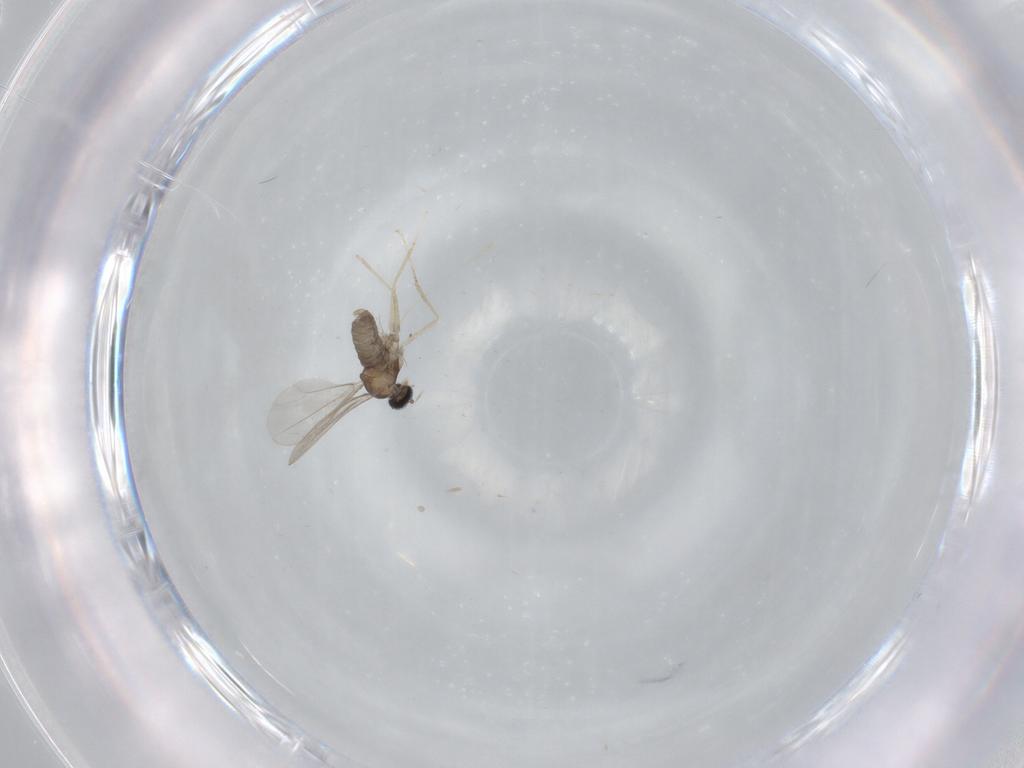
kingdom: Animalia
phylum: Arthropoda
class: Insecta
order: Diptera
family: Cecidomyiidae
